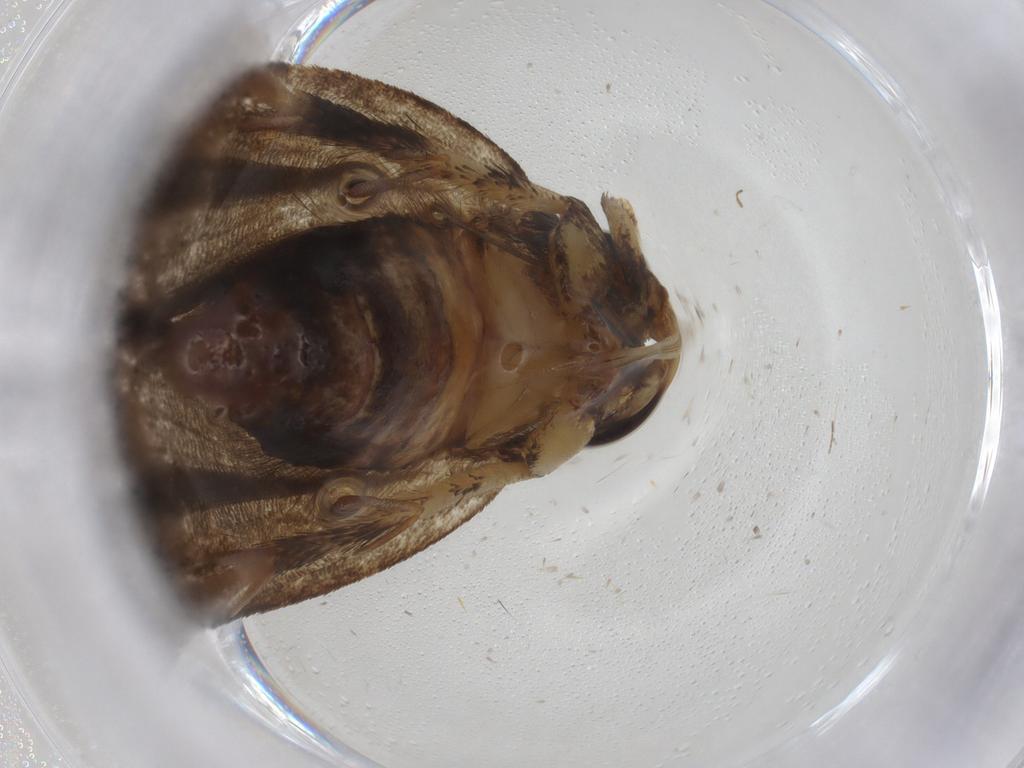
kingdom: Animalia
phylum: Arthropoda
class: Insecta
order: Lepidoptera
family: Lecithoceridae
